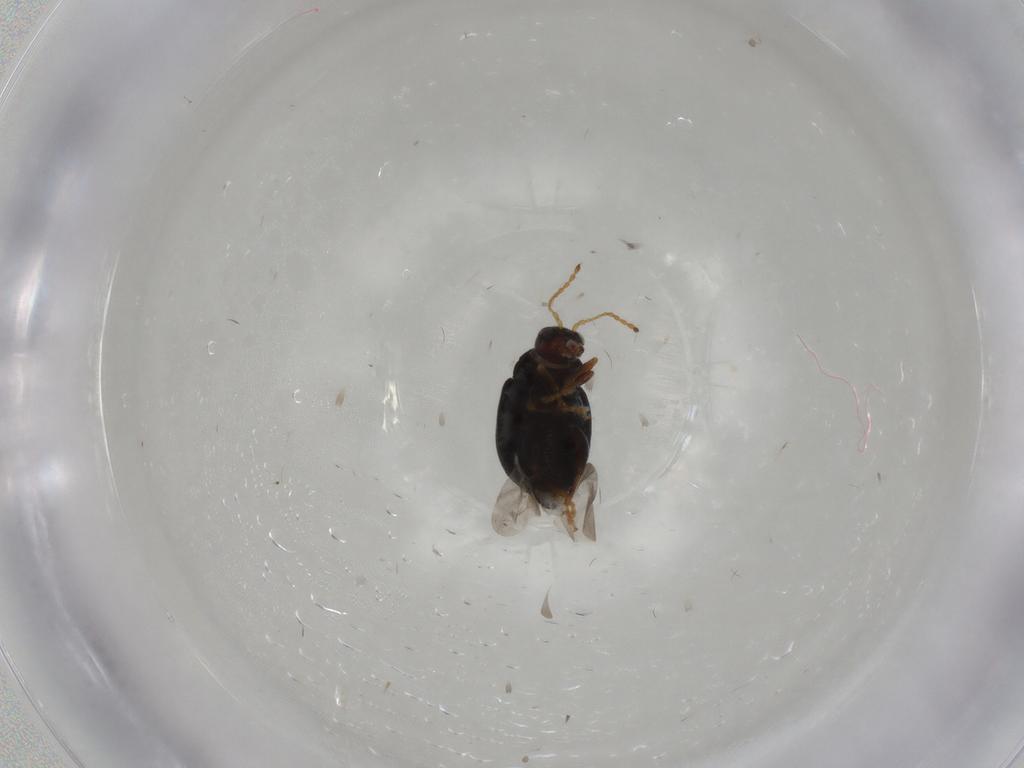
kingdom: Animalia
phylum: Arthropoda
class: Insecta
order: Coleoptera
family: Chrysomelidae
